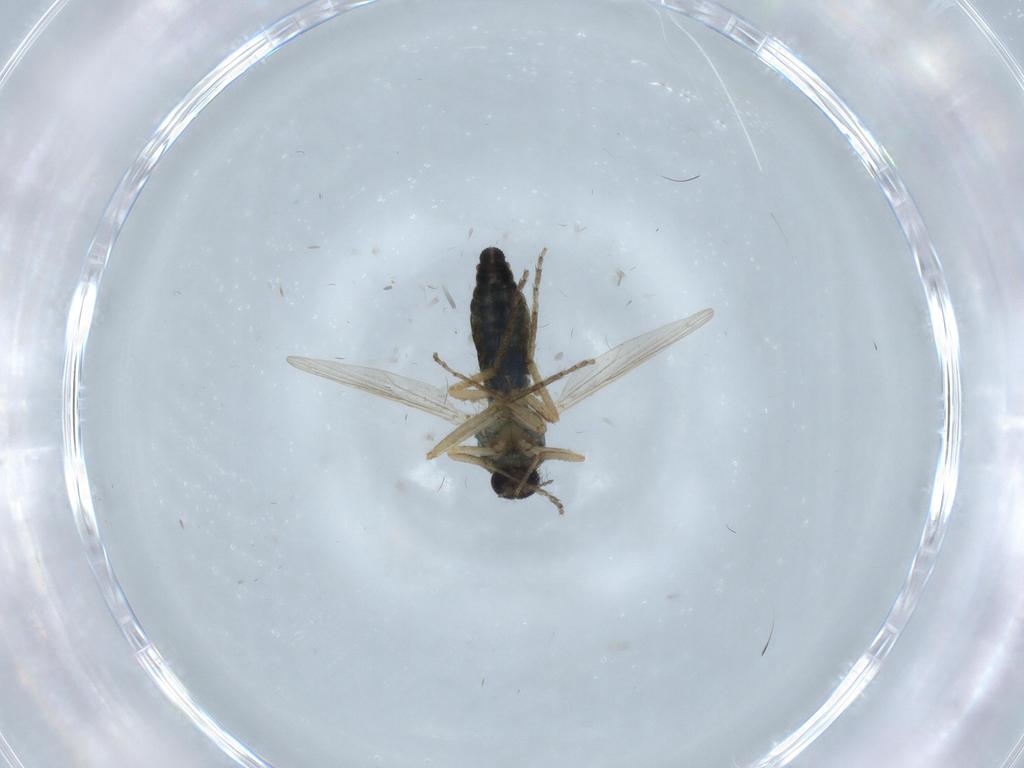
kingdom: Animalia
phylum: Arthropoda
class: Insecta
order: Diptera
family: Ceratopogonidae
